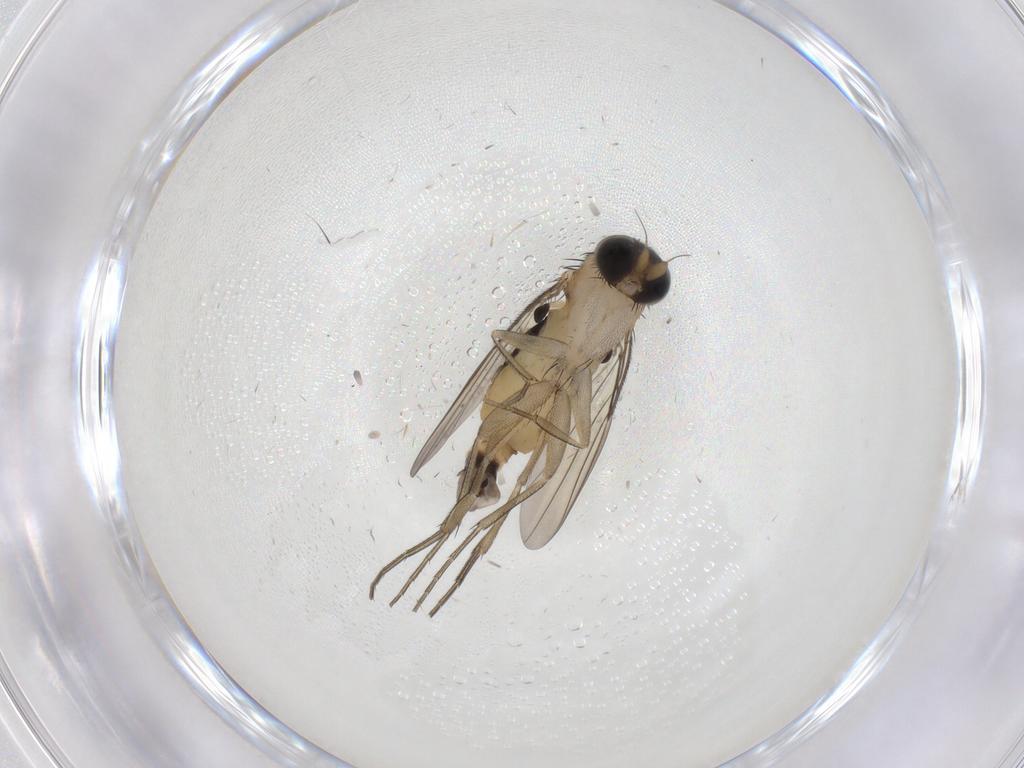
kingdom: Animalia
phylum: Arthropoda
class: Insecta
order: Diptera
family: Phoridae
